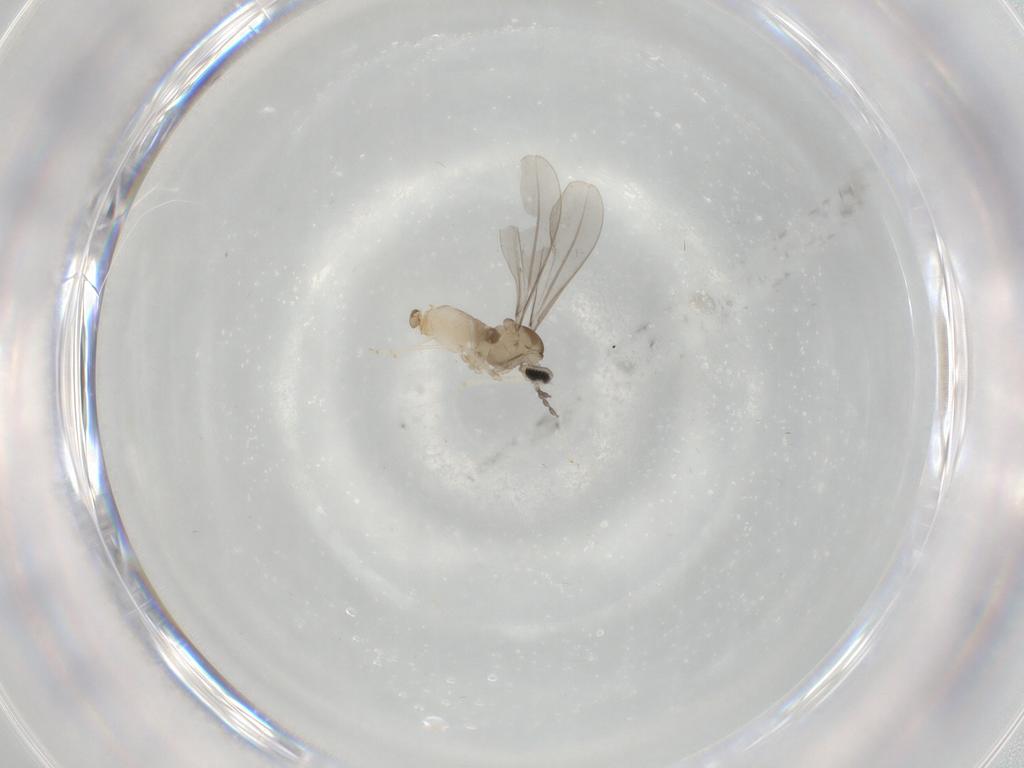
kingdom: Animalia
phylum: Arthropoda
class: Insecta
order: Diptera
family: Cecidomyiidae
